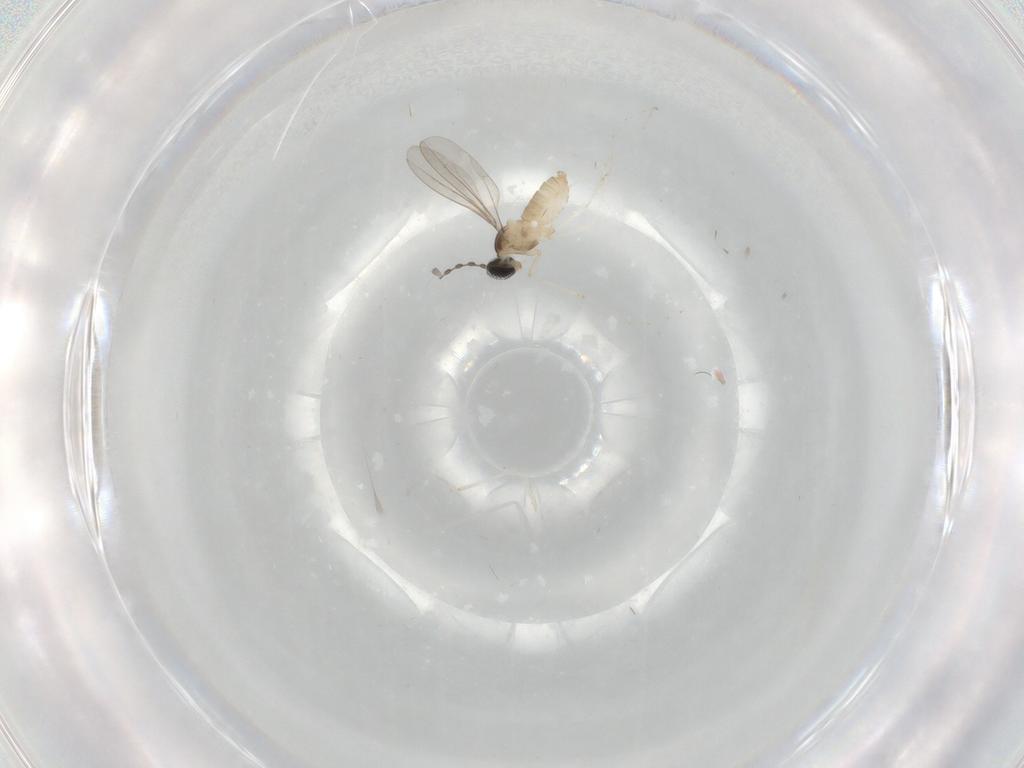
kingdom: Animalia
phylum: Arthropoda
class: Insecta
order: Diptera
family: Cecidomyiidae
